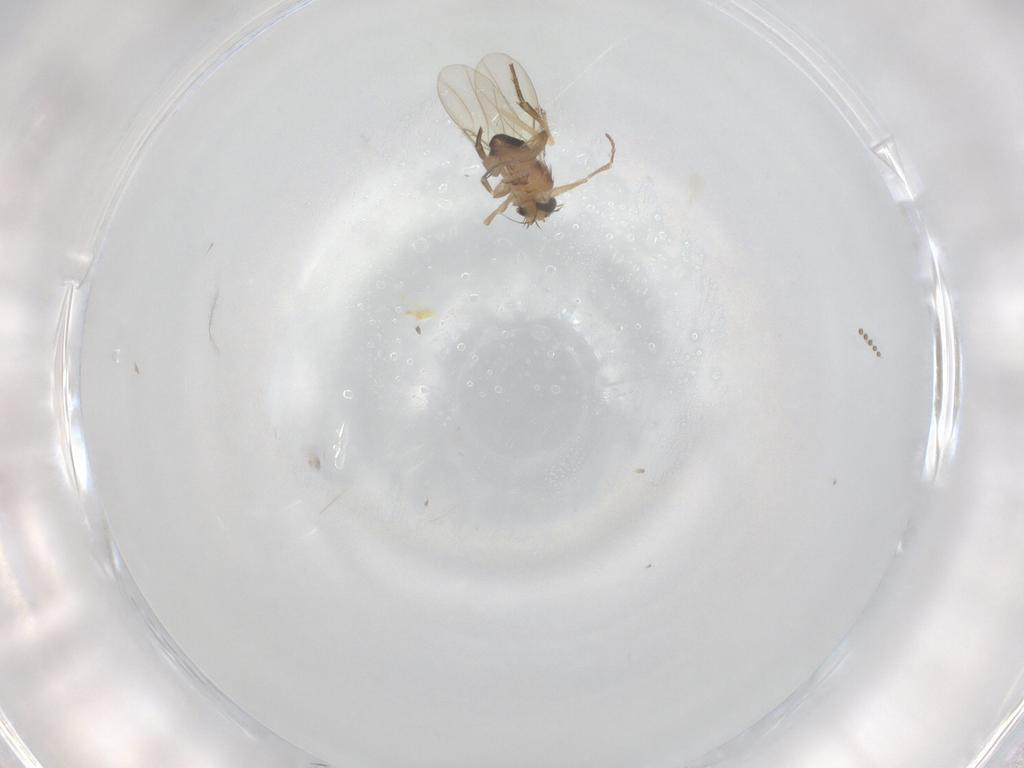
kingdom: Animalia
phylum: Arthropoda
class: Insecta
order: Diptera
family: Phoridae
